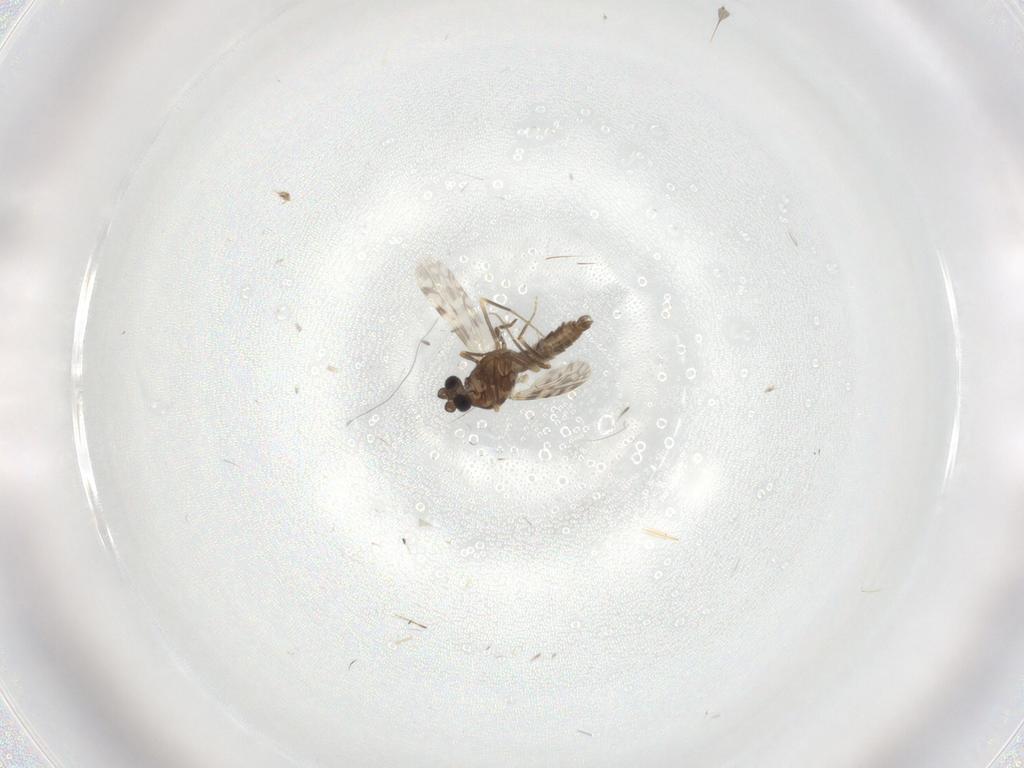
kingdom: Animalia
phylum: Arthropoda
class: Insecta
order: Diptera
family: Ceratopogonidae
